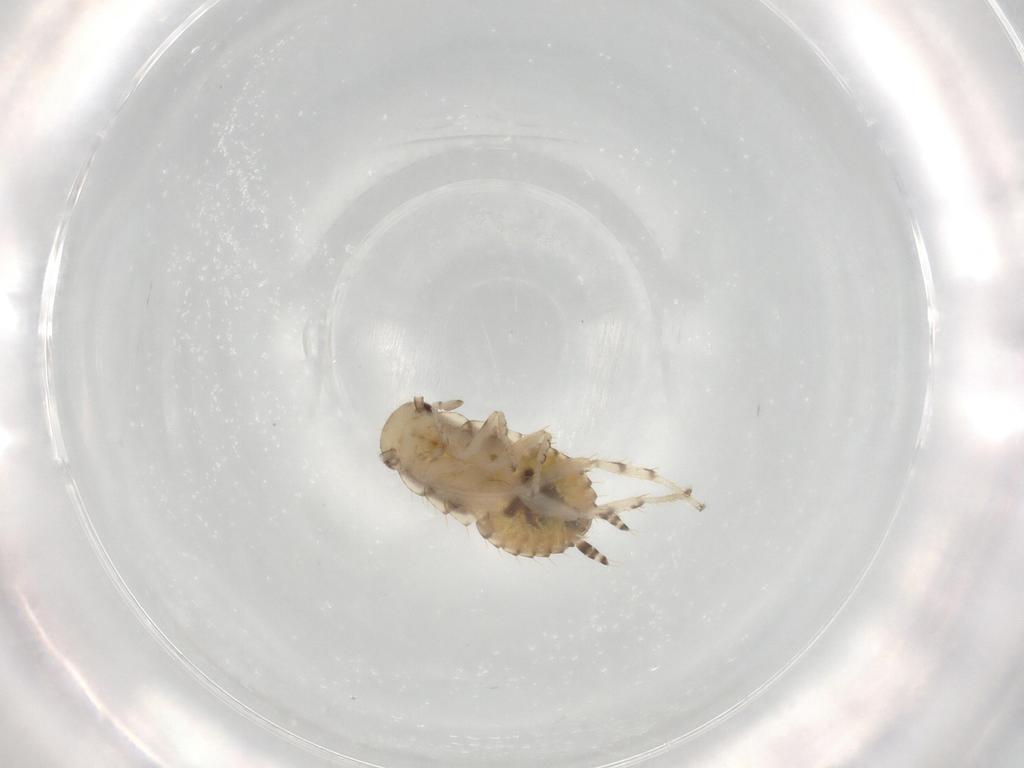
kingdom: Animalia
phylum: Arthropoda
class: Insecta
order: Blattodea
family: Ectobiidae
